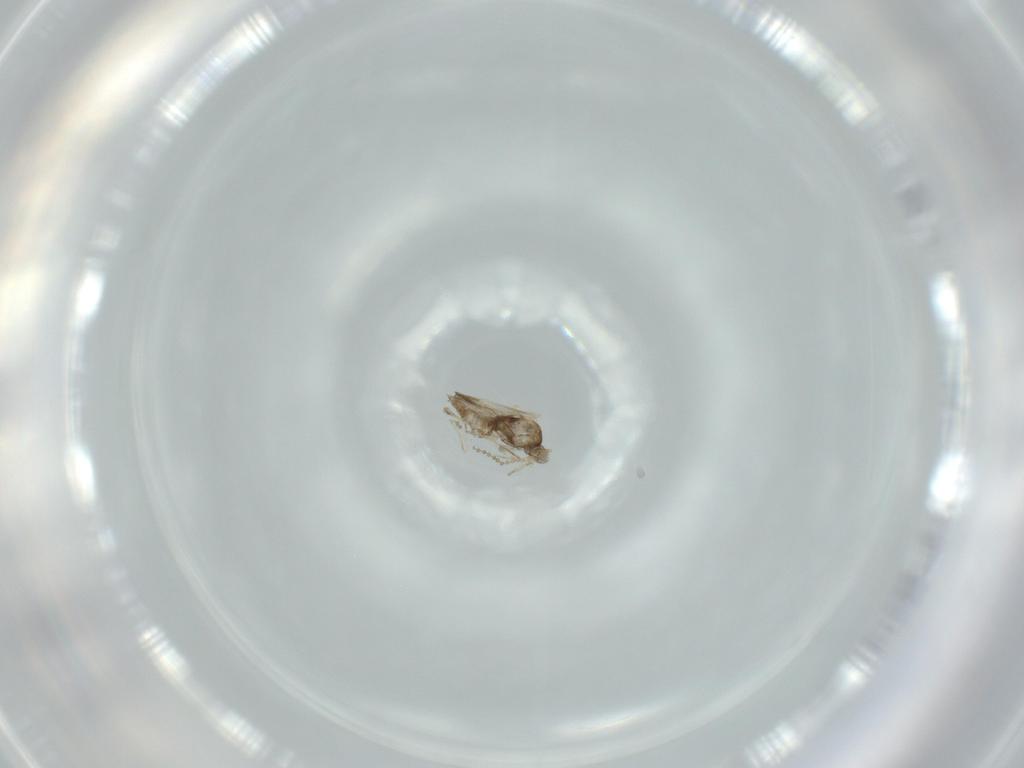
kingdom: Animalia
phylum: Arthropoda
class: Insecta
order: Diptera
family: Cecidomyiidae
